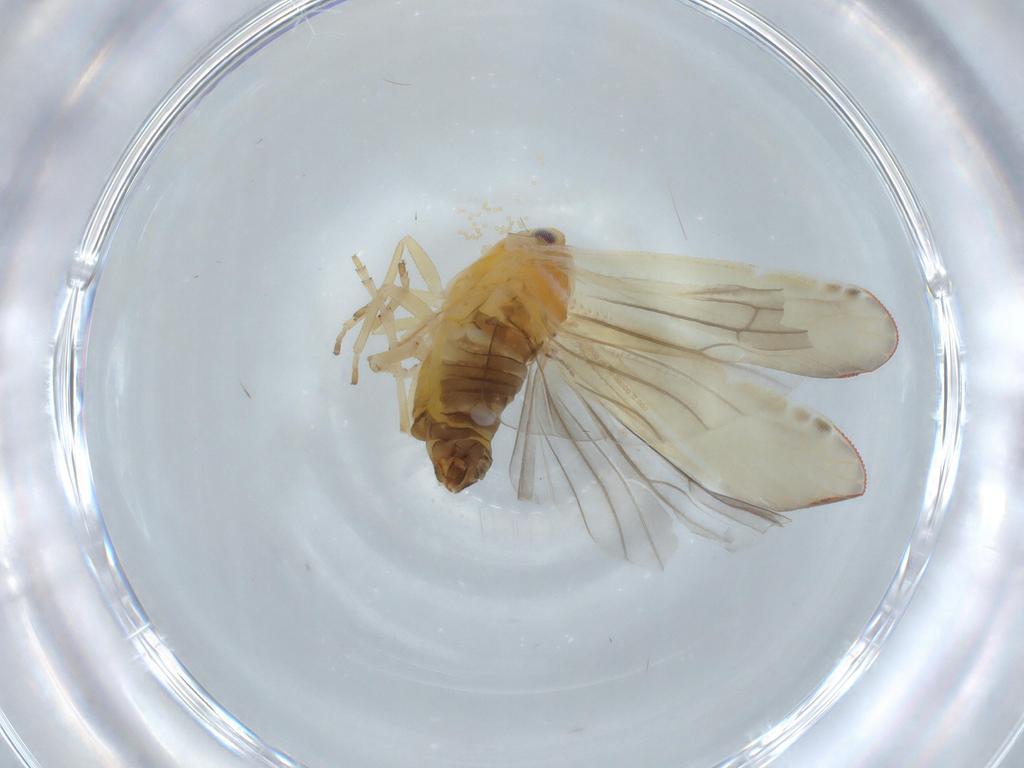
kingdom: Animalia
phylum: Arthropoda
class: Insecta
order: Hemiptera
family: Derbidae
